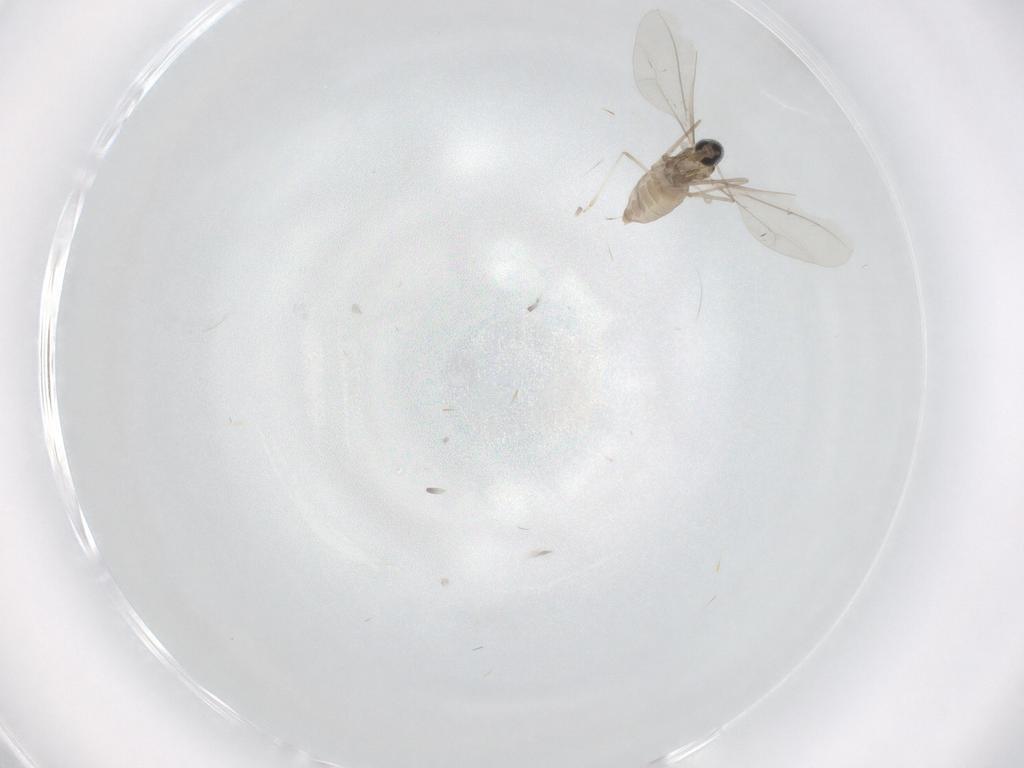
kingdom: Animalia
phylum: Arthropoda
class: Insecta
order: Diptera
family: Cecidomyiidae
